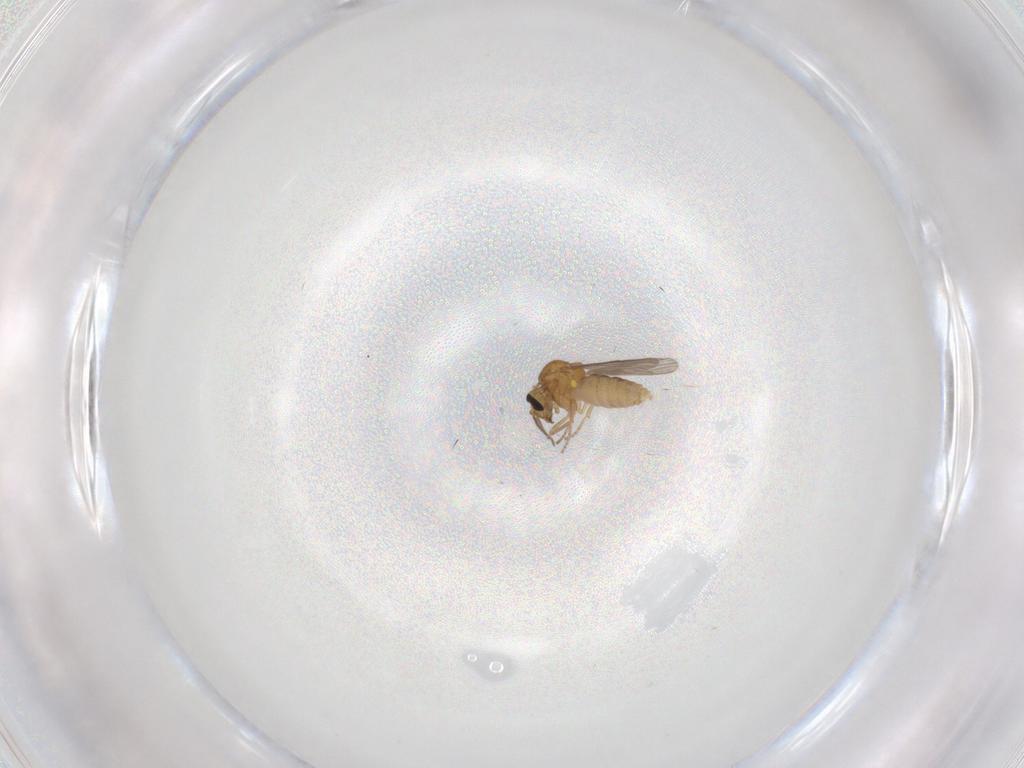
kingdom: Animalia
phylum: Arthropoda
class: Insecta
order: Diptera
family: Ceratopogonidae
